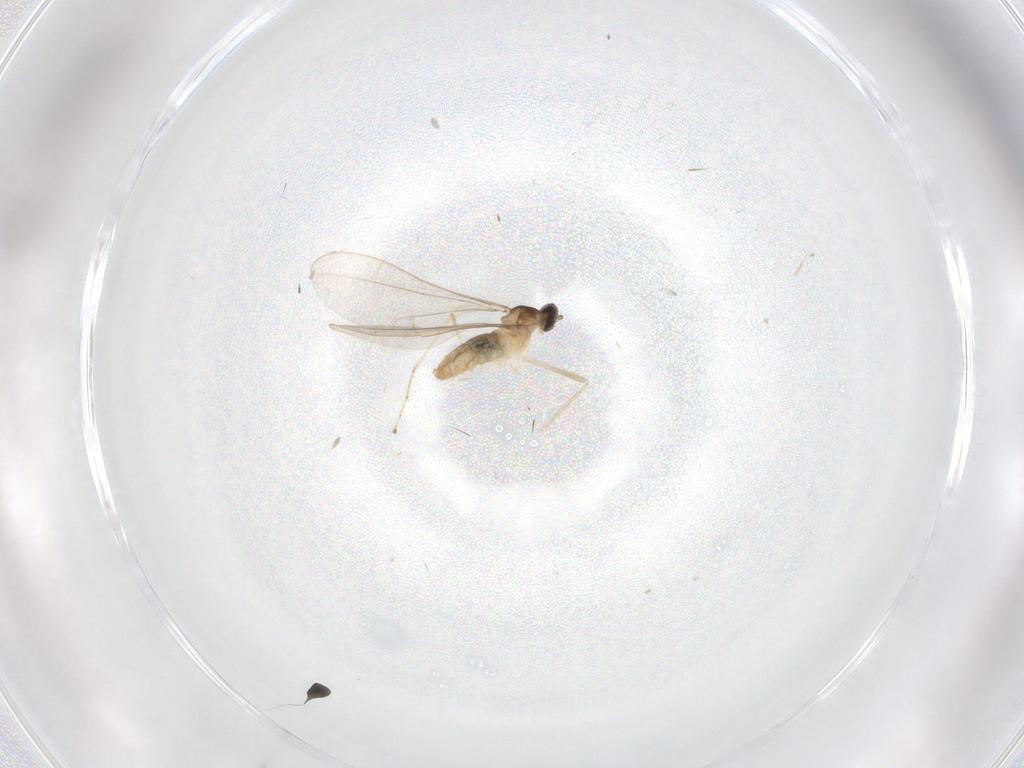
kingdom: Animalia
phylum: Arthropoda
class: Insecta
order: Diptera
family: Cecidomyiidae
